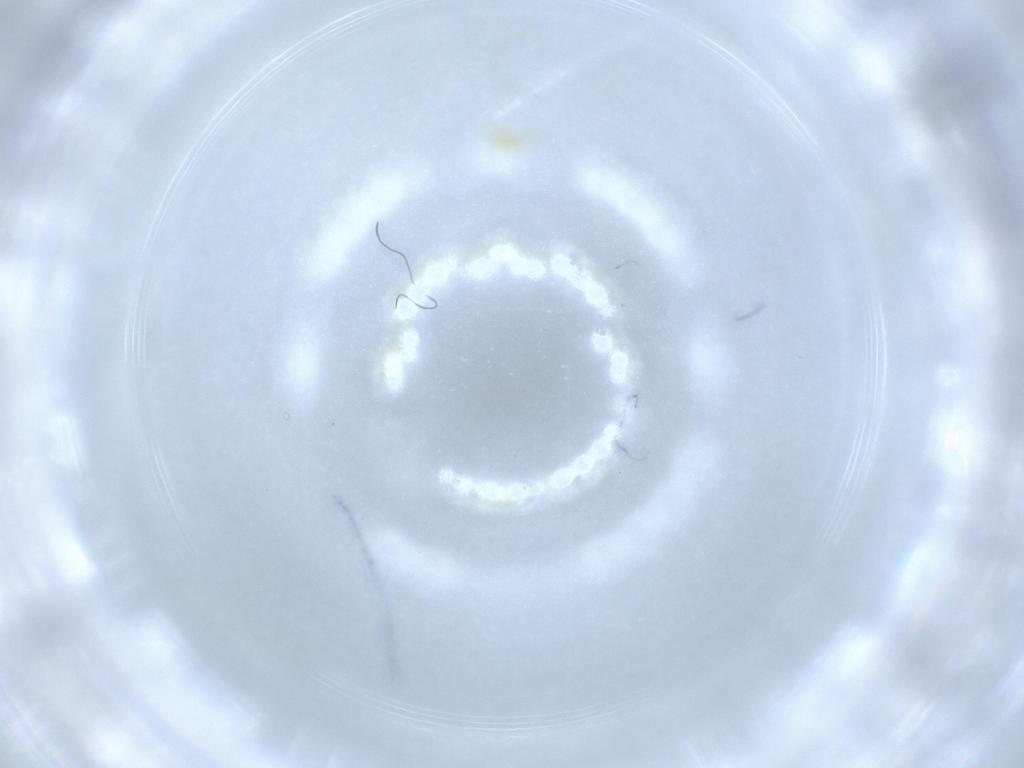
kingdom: Animalia
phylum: Arthropoda
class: Arachnida
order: Trombidiformes
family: Tetranychidae
